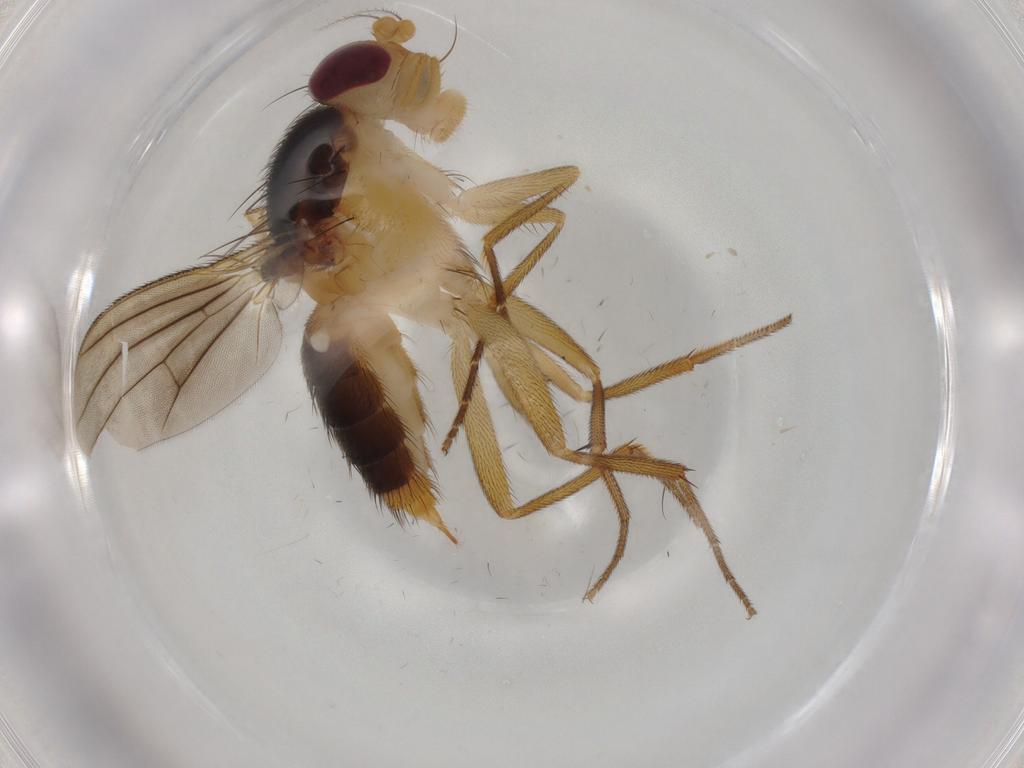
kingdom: Animalia
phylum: Arthropoda
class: Insecta
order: Diptera
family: Clusiidae
